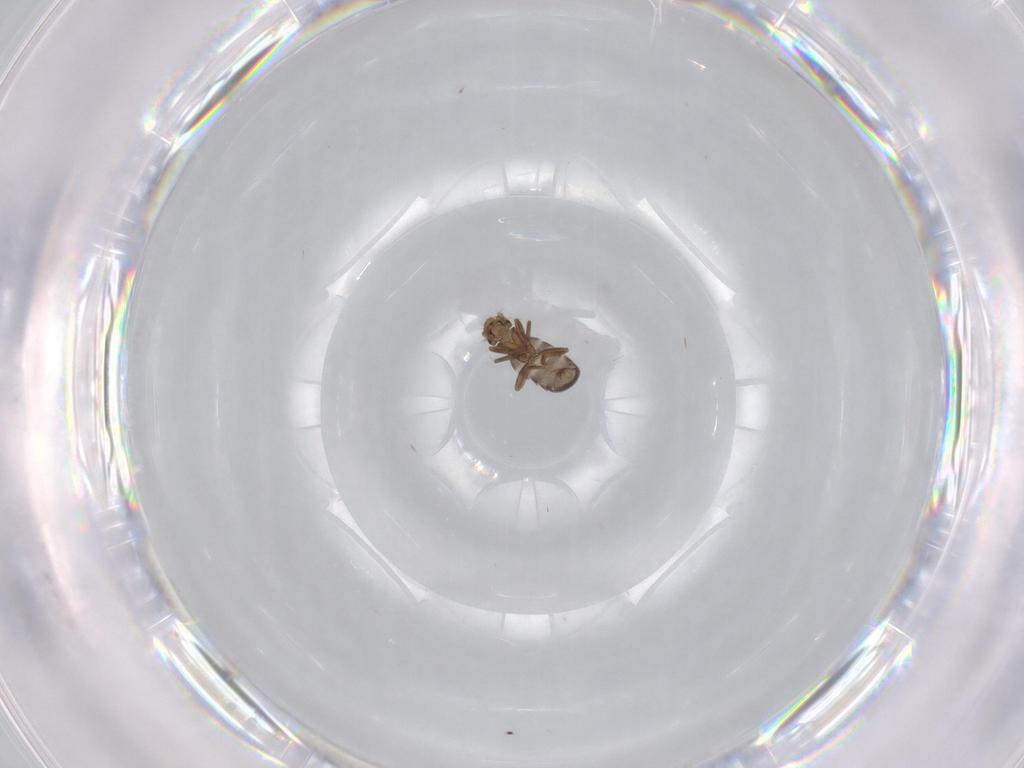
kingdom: Animalia
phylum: Arthropoda
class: Insecta
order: Diptera
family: Phoridae
